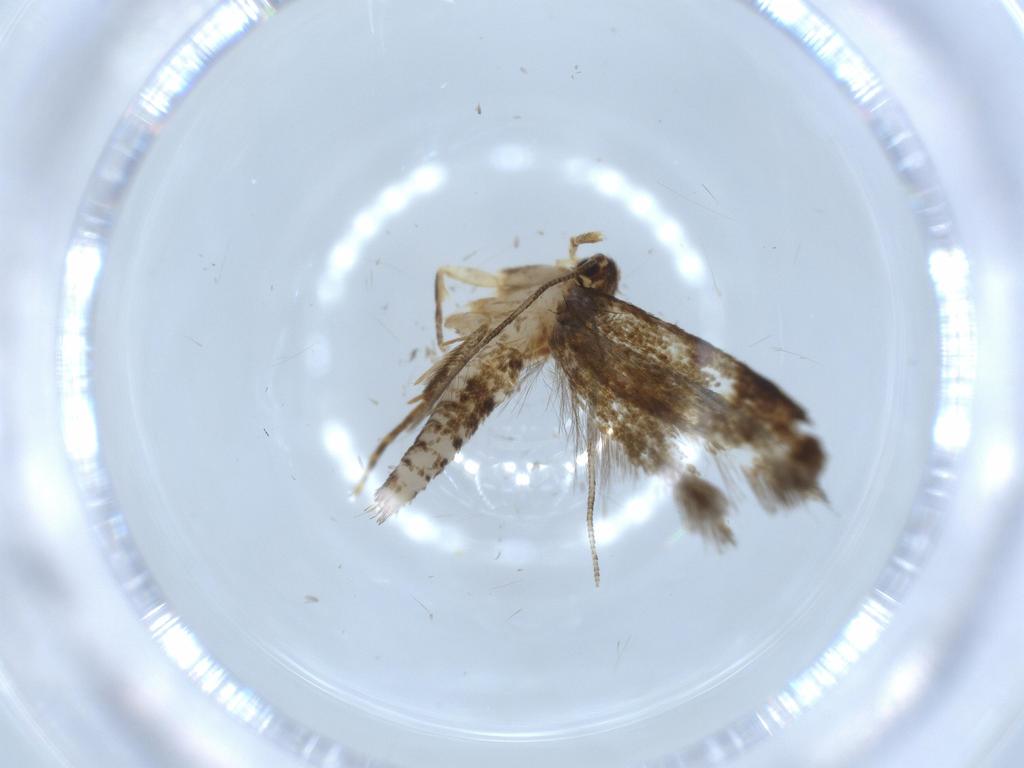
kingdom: Animalia
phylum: Arthropoda
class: Insecta
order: Lepidoptera
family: Tineidae
